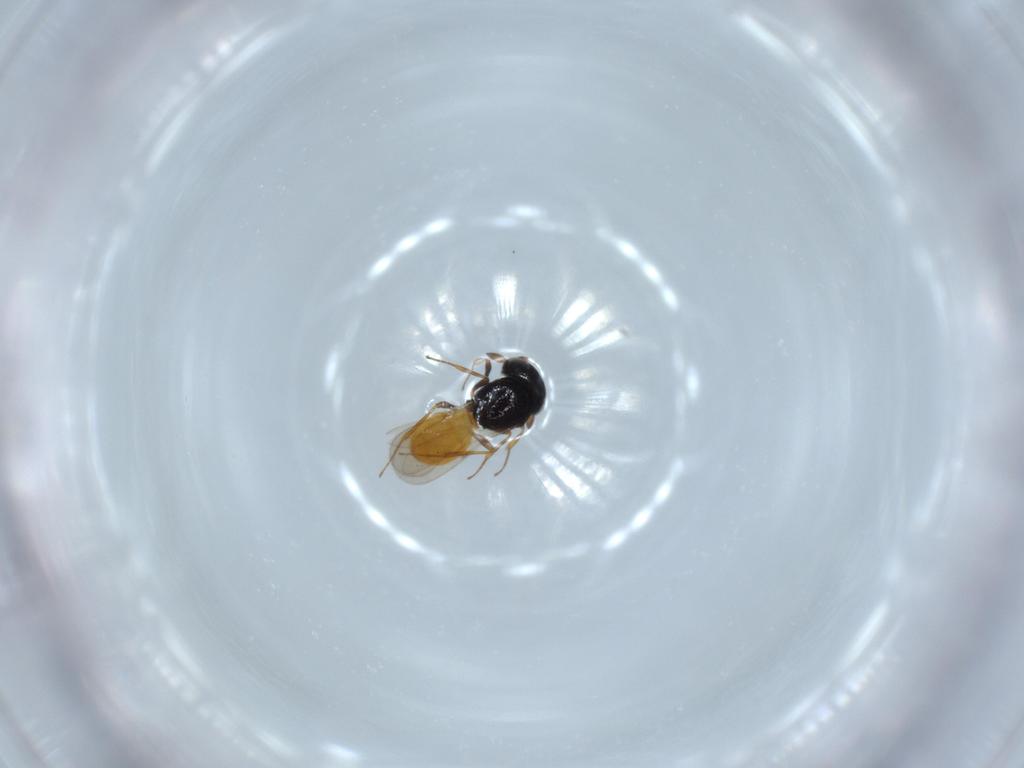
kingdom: Animalia
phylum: Arthropoda
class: Insecta
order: Hymenoptera
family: Scelionidae
